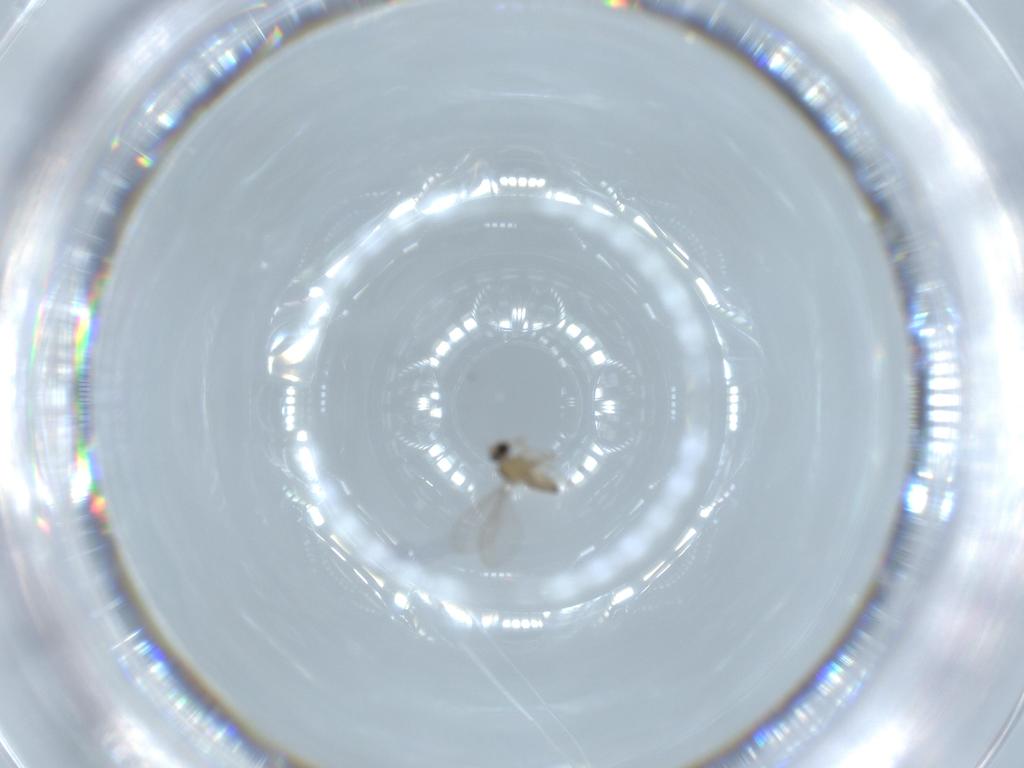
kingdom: Animalia
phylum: Arthropoda
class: Insecta
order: Diptera
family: Cecidomyiidae
